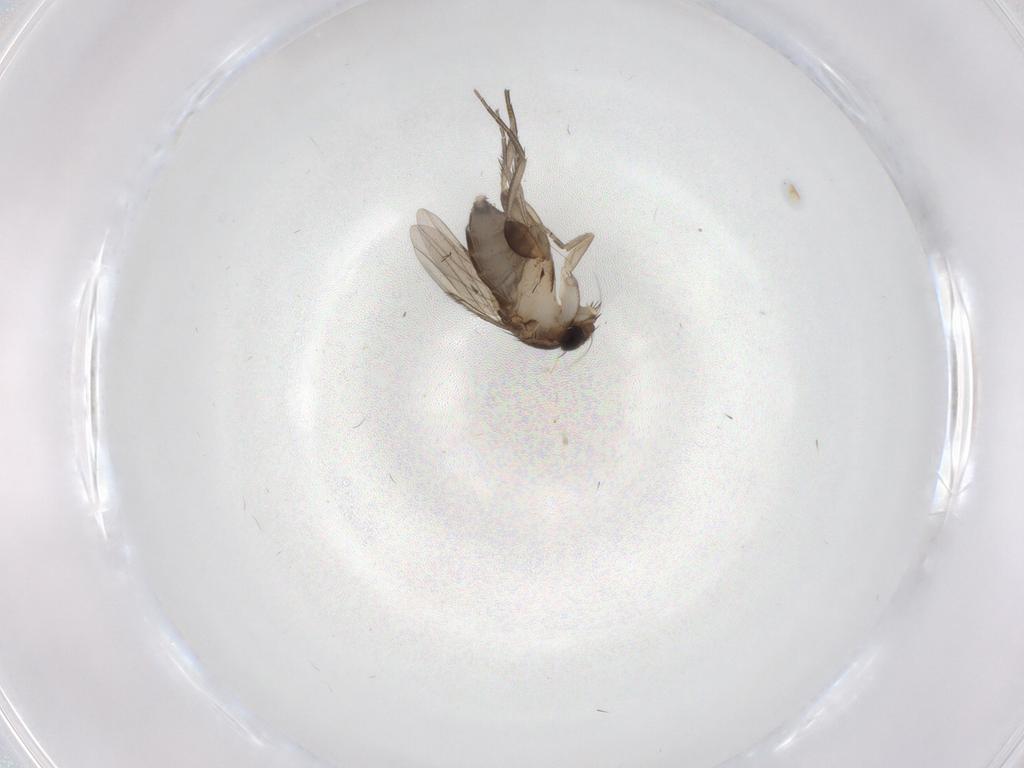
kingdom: Animalia
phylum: Arthropoda
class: Insecta
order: Diptera
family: Phoridae
